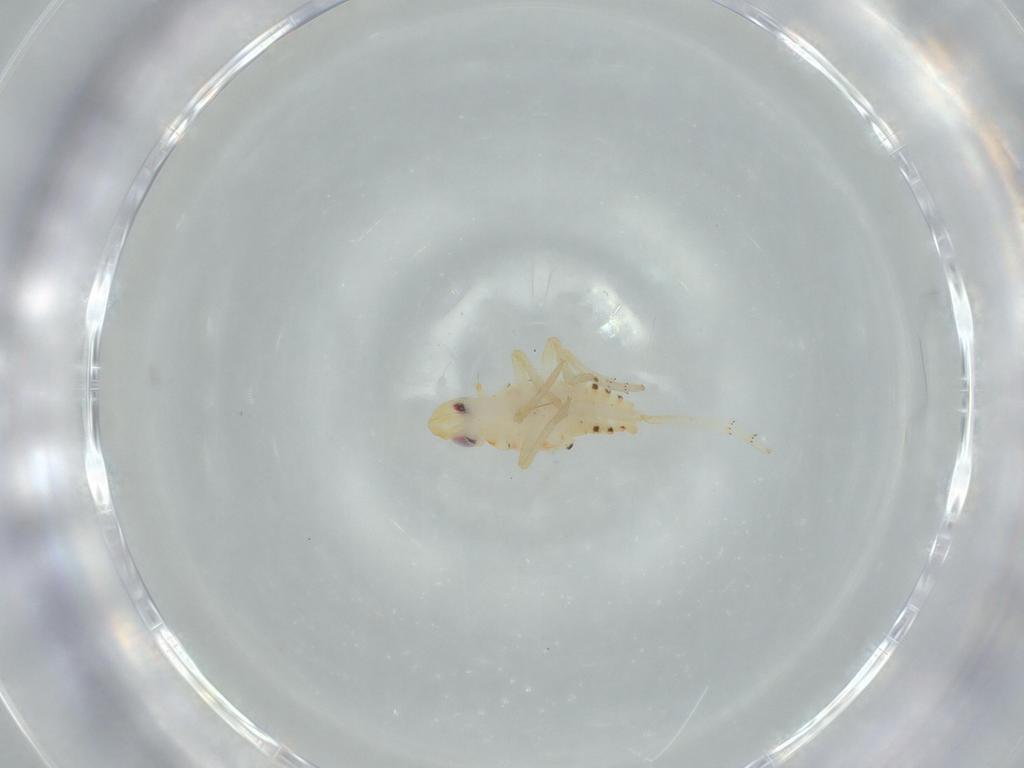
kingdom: Animalia
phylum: Arthropoda
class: Insecta
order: Hemiptera
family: Tropiduchidae
